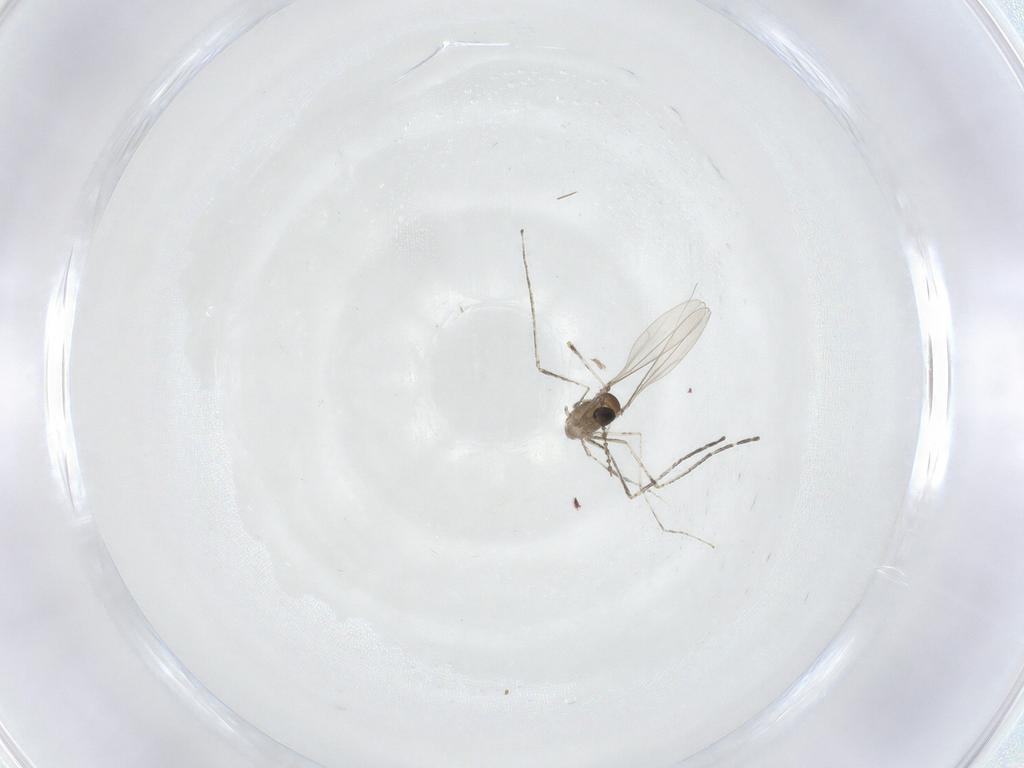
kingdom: Animalia
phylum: Arthropoda
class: Insecta
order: Diptera
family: Cecidomyiidae
